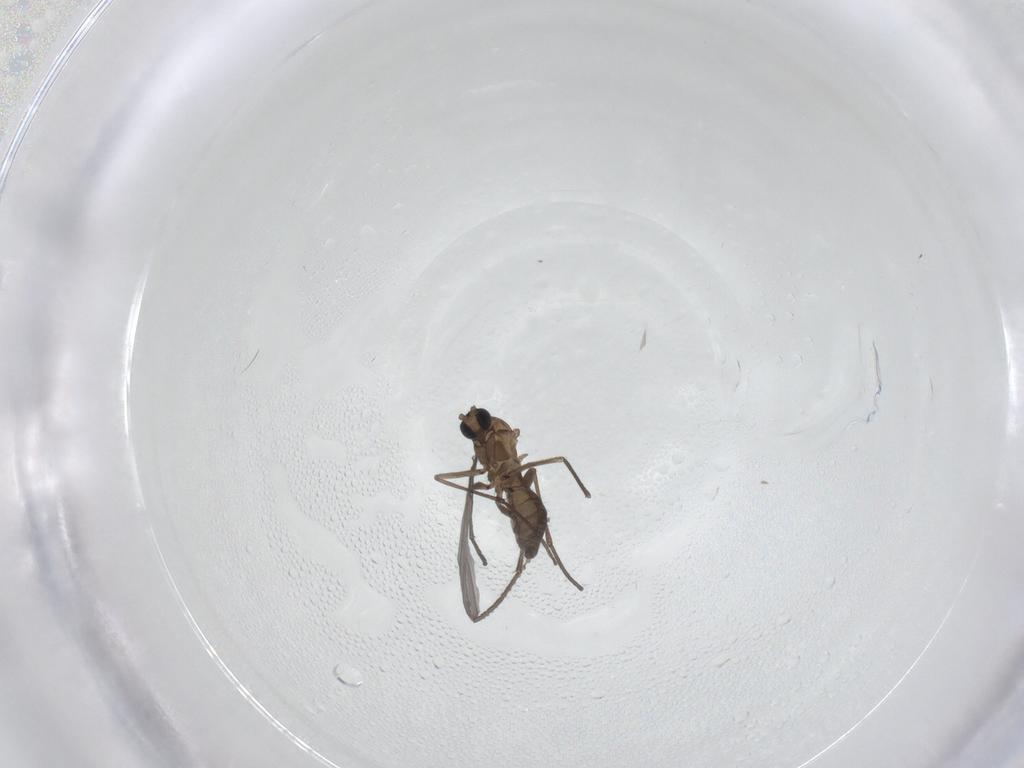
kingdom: Animalia
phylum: Arthropoda
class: Insecta
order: Diptera
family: Sciaridae
